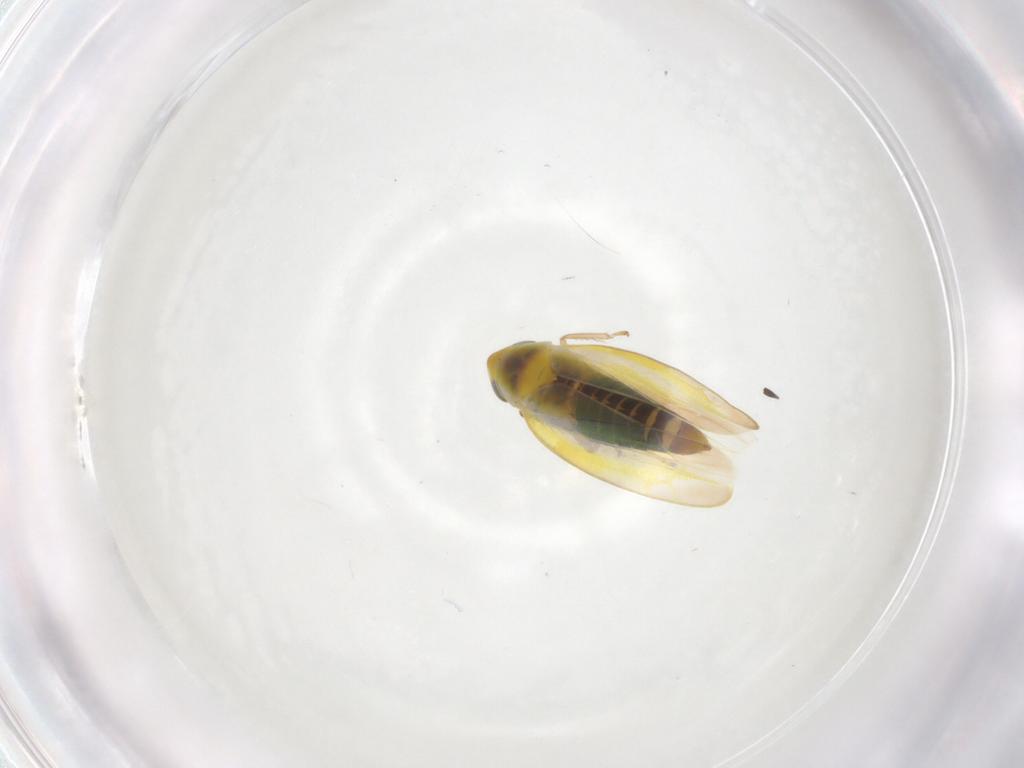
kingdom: Animalia
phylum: Arthropoda
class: Insecta
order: Hemiptera
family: Cicadellidae
